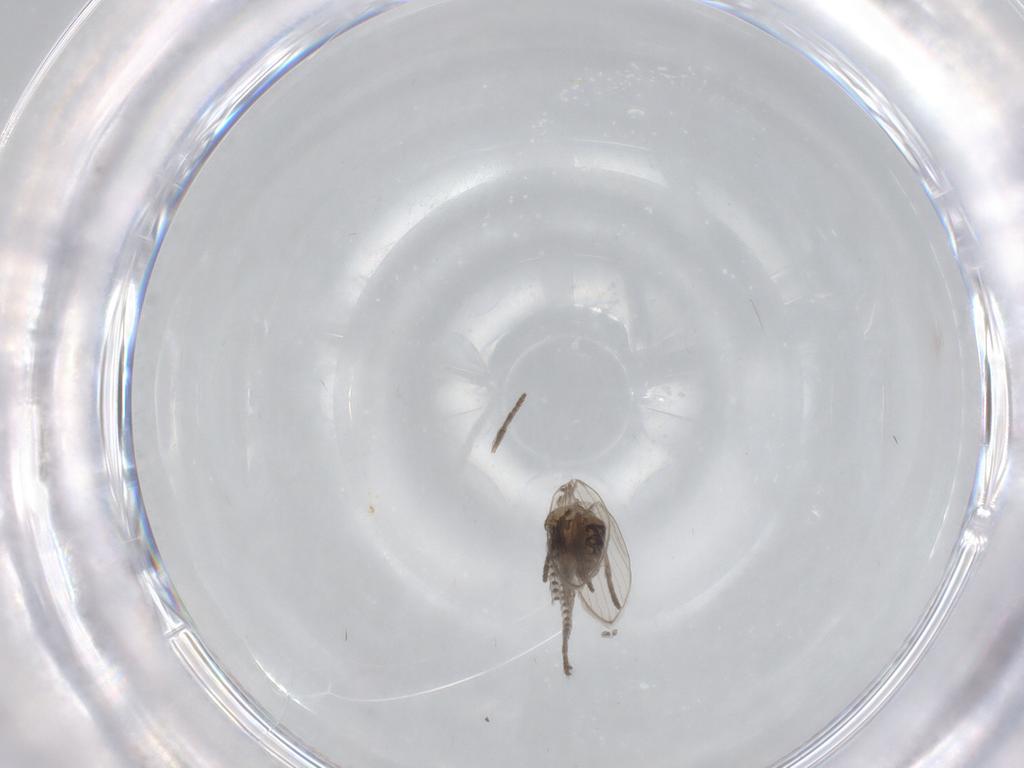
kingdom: Animalia
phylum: Arthropoda
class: Insecta
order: Diptera
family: Psychodidae
